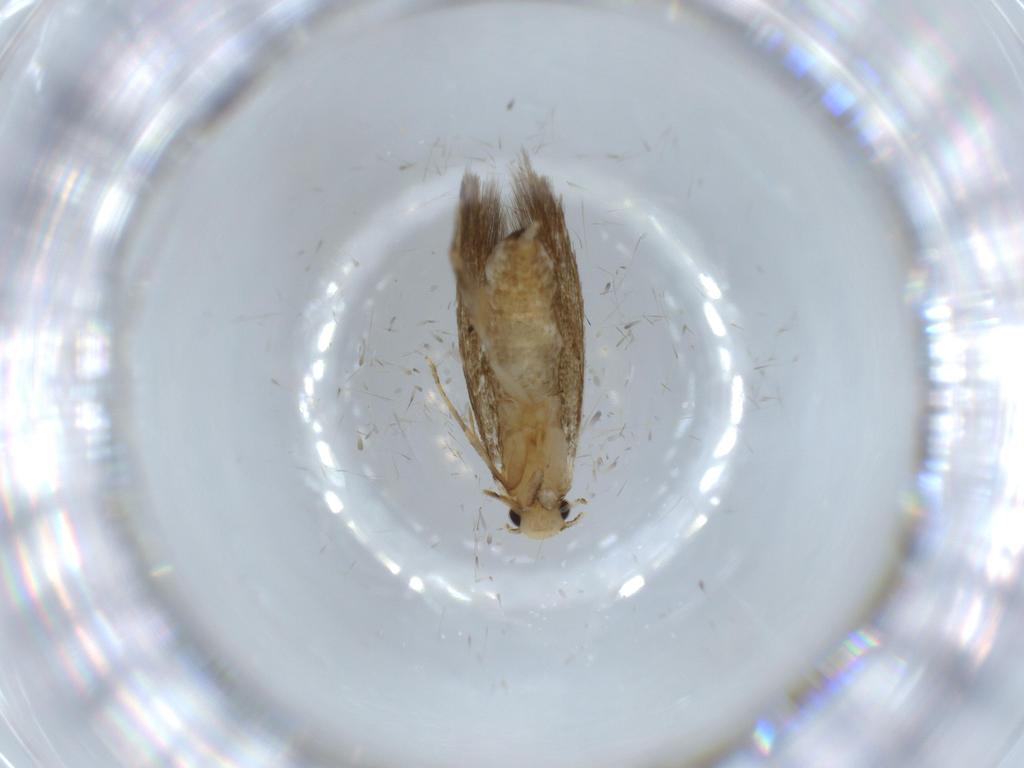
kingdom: Animalia
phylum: Arthropoda
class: Insecta
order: Lepidoptera
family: Tineidae
